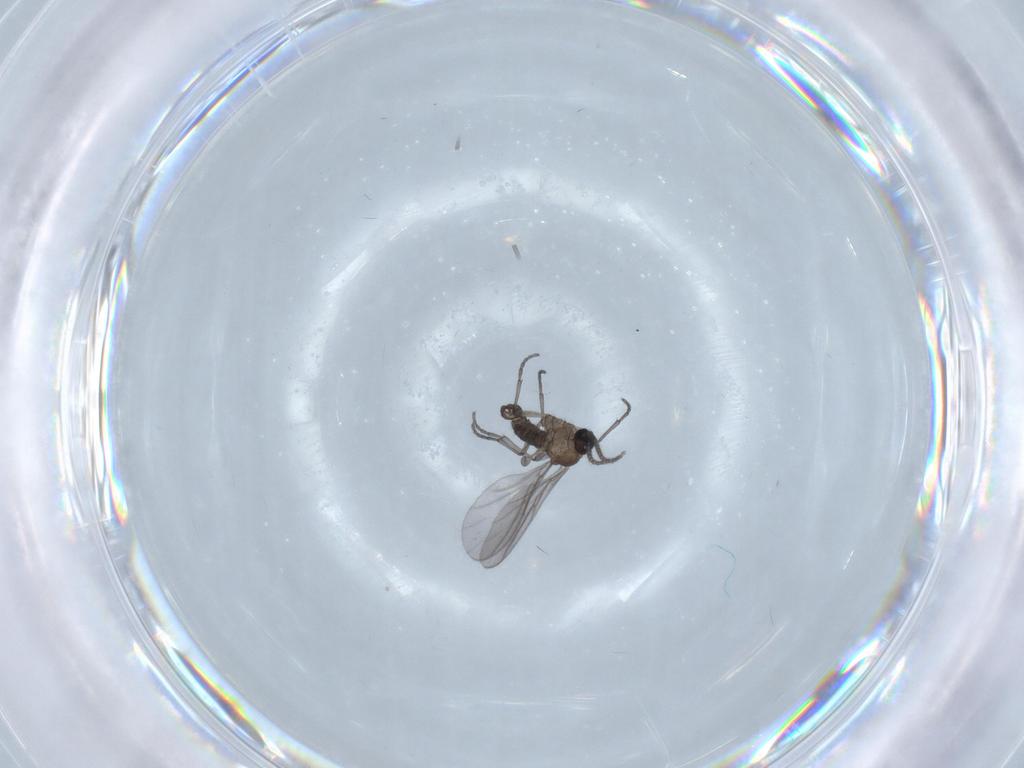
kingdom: Animalia
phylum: Arthropoda
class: Insecta
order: Diptera
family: Sciaridae
